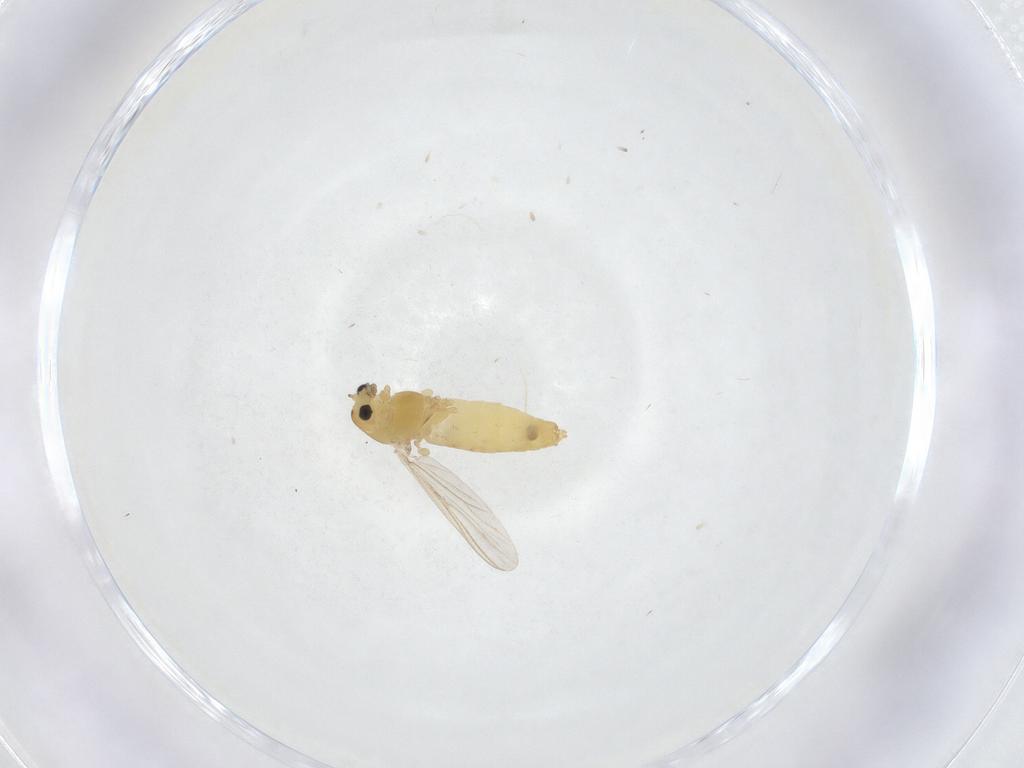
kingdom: Animalia
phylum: Arthropoda
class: Insecta
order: Diptera
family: Chironomidae
